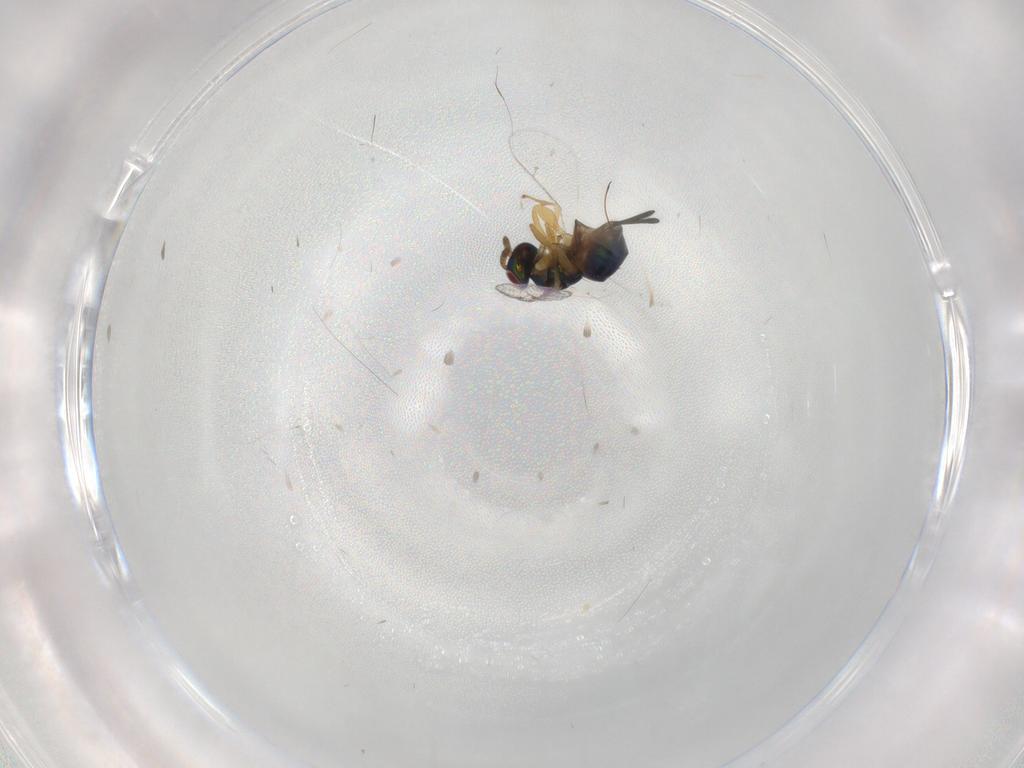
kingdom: Animalia
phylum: Arthropoda
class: Insecta
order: Hymenoptera
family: Torymidae
